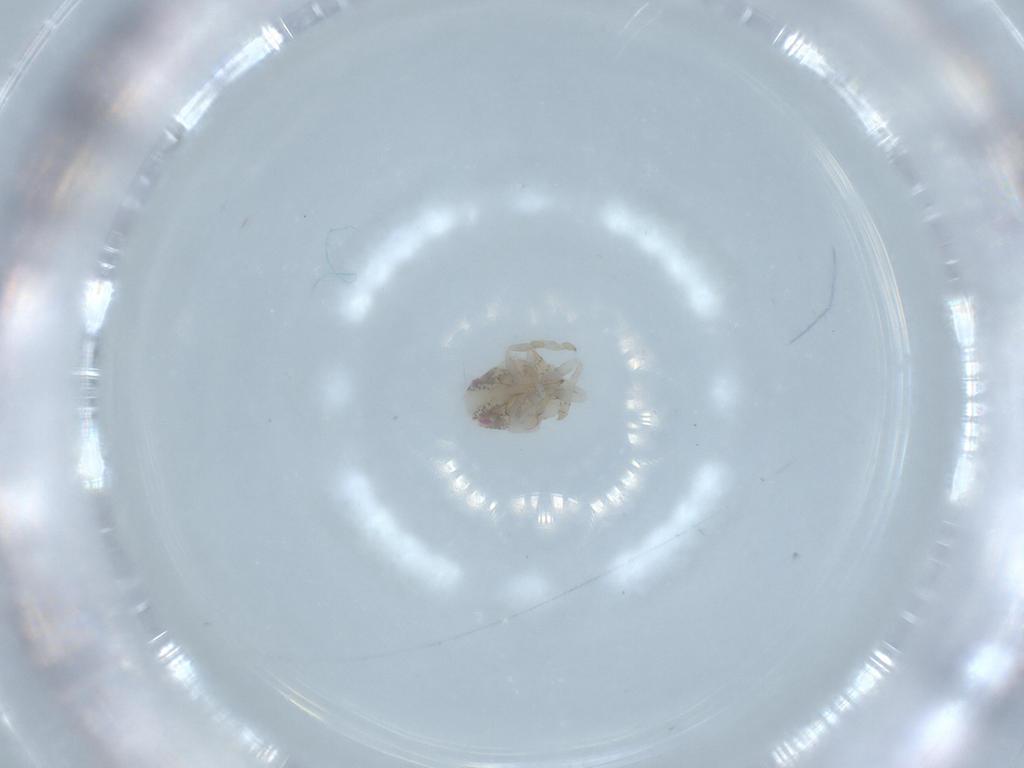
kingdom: Animalia
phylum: Arthropoda
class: Insecta
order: Hemiptera
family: Acanaloniidae
